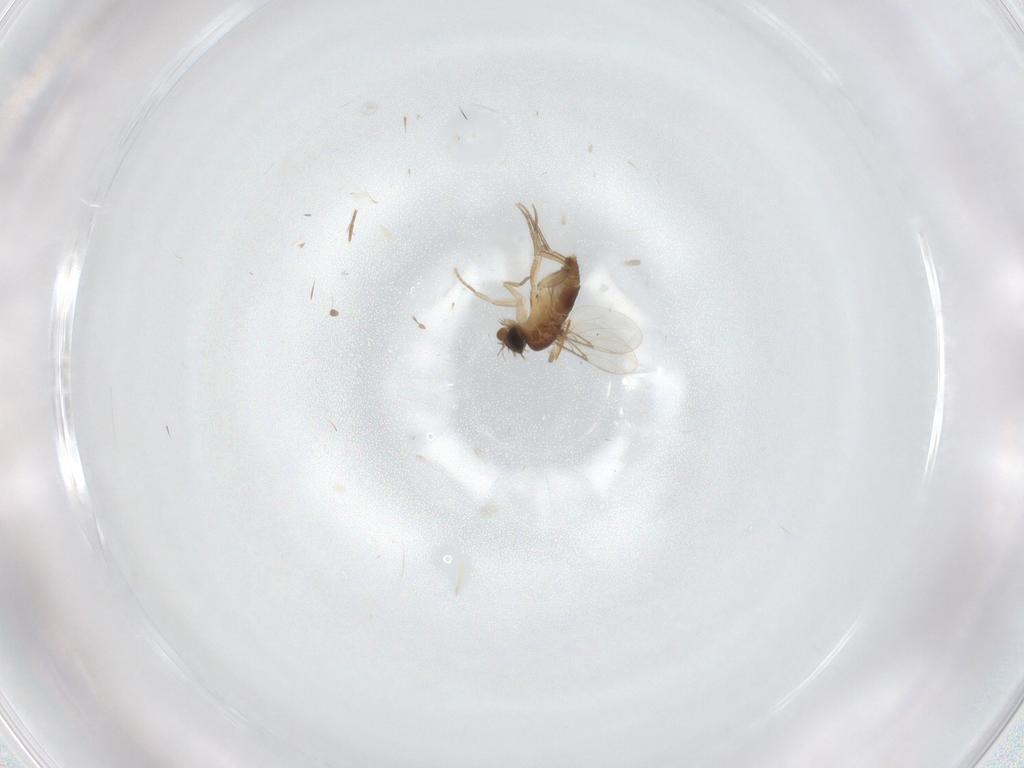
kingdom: Animalia
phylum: Arthropoda
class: Insecta
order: Diptera
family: Phoridae
